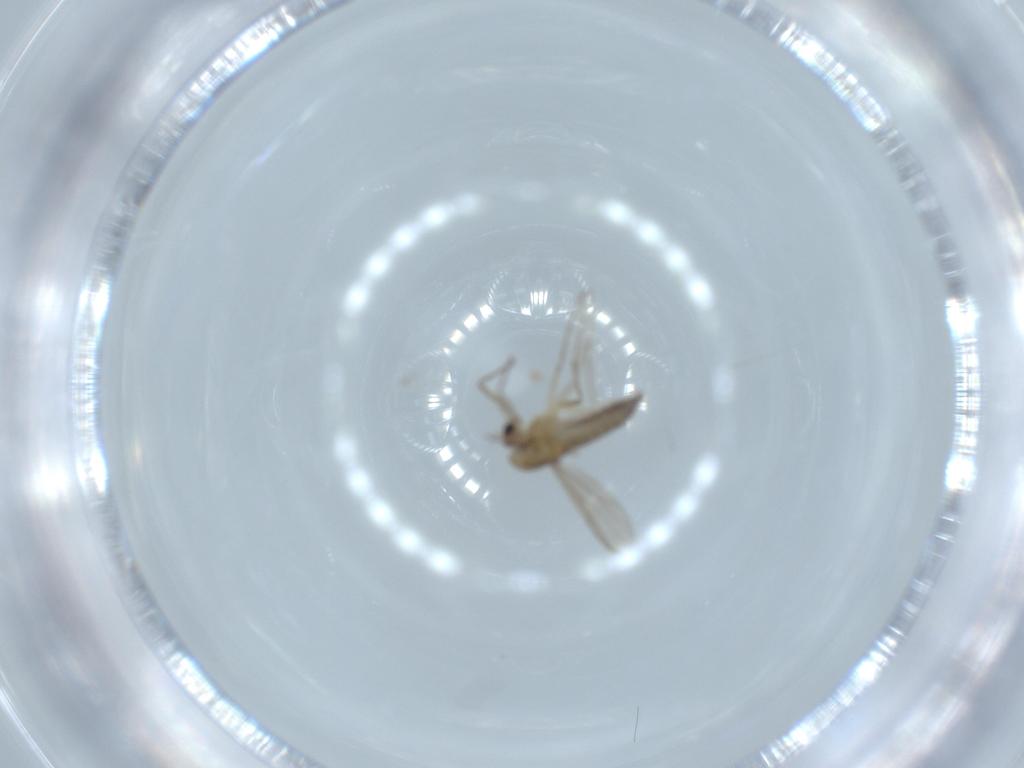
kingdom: Animalia
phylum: Arthropoda
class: Insecta
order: Diptera
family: Chironomidae
